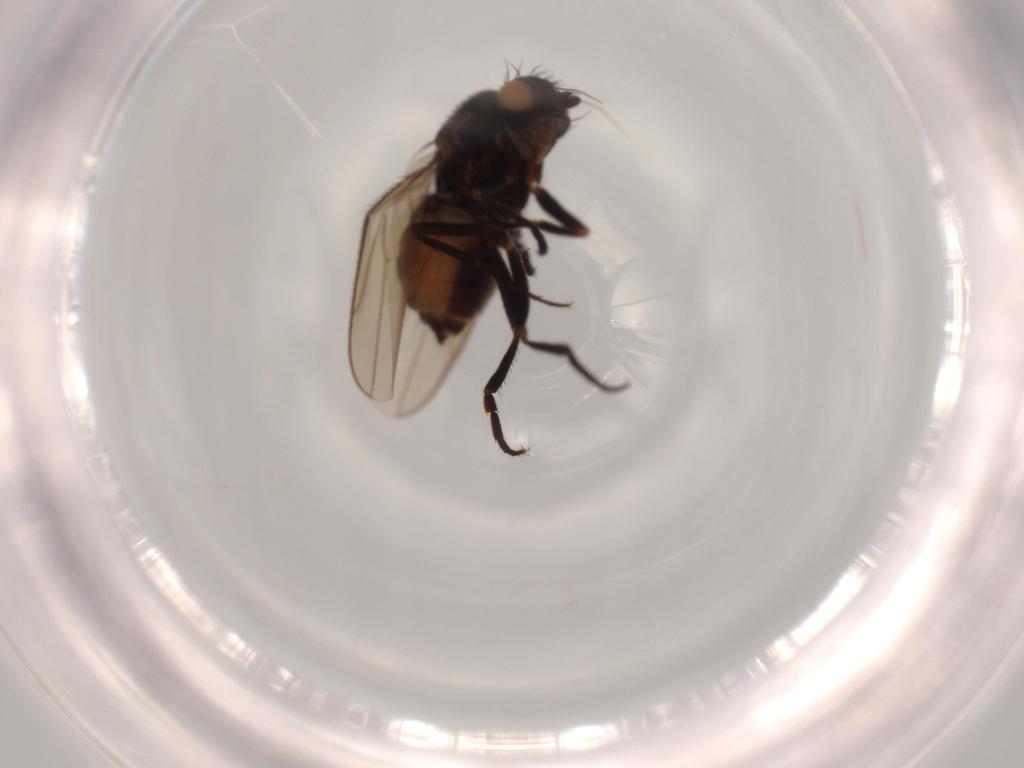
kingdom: Animalia
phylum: Arthropoda
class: Insecta
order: Diptera
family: Sphaeroceridae
